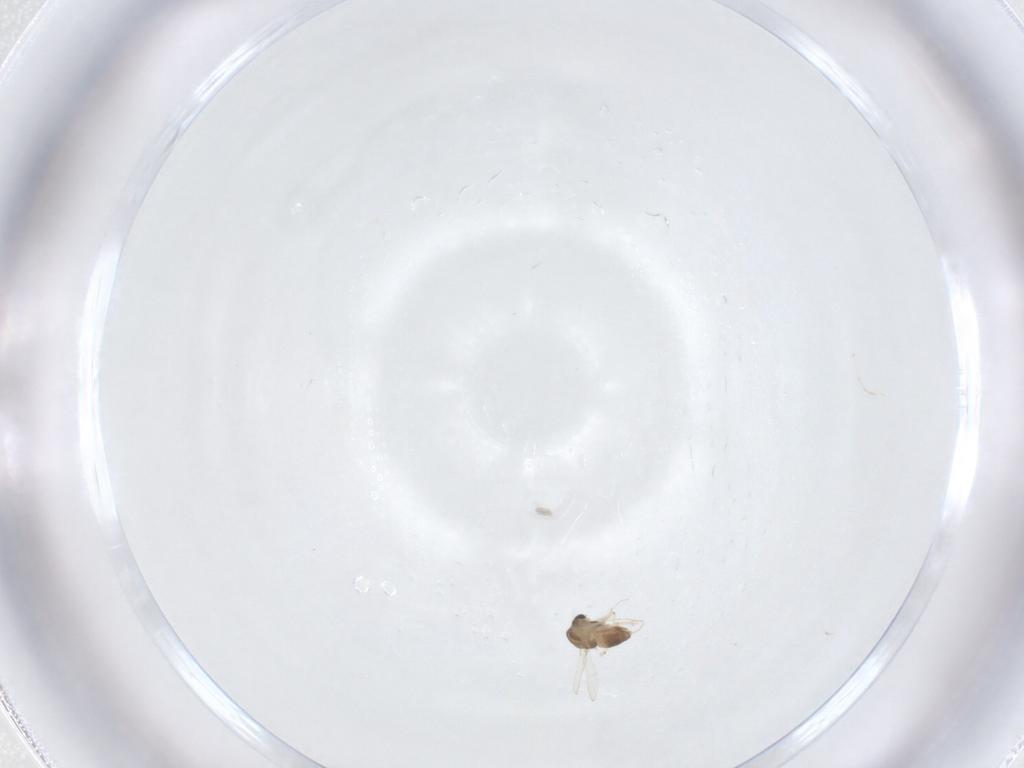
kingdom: Animalia
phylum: Arthropoda
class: Insecta
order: Diptera
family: Chironomidae
